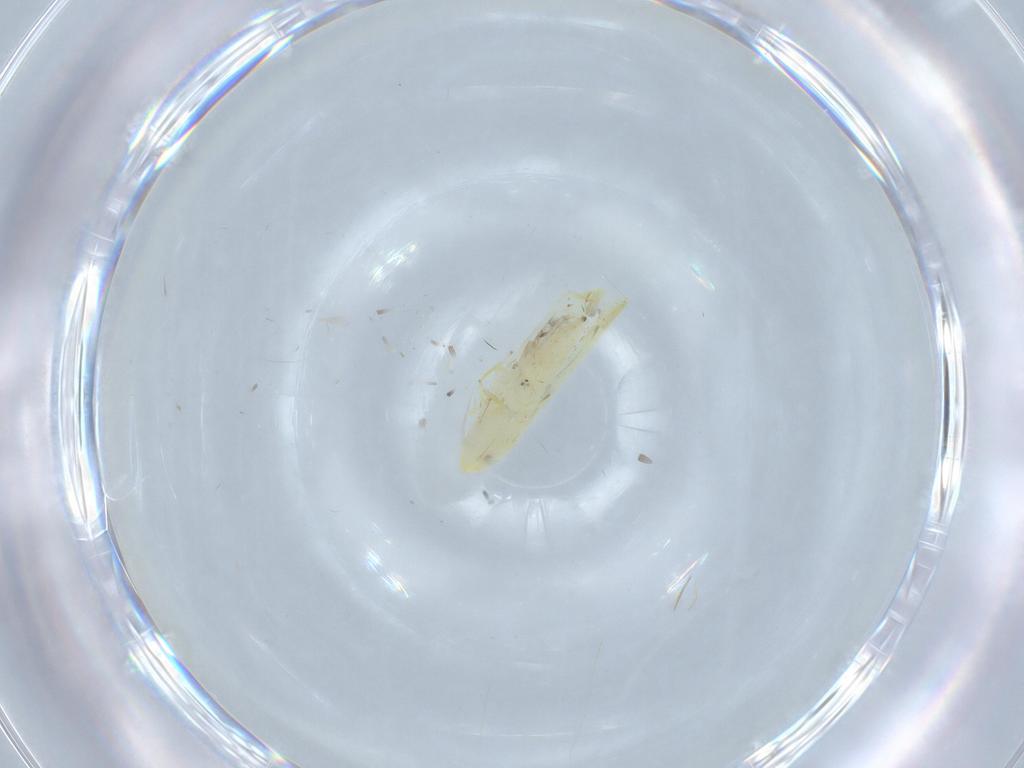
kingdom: Animalia
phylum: Arthropoda
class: Insecta
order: Hemiptera
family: Cicadellidae
